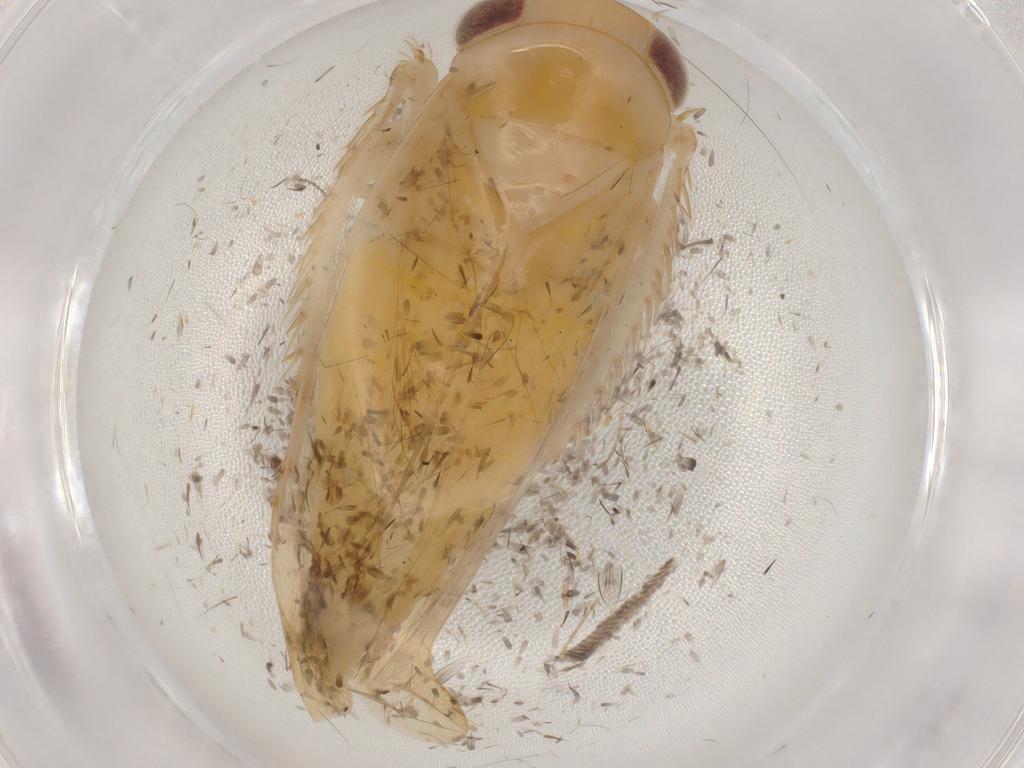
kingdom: Animalia
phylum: Arthropoda
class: Insecta
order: Hemiptera
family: Cicadellidae
